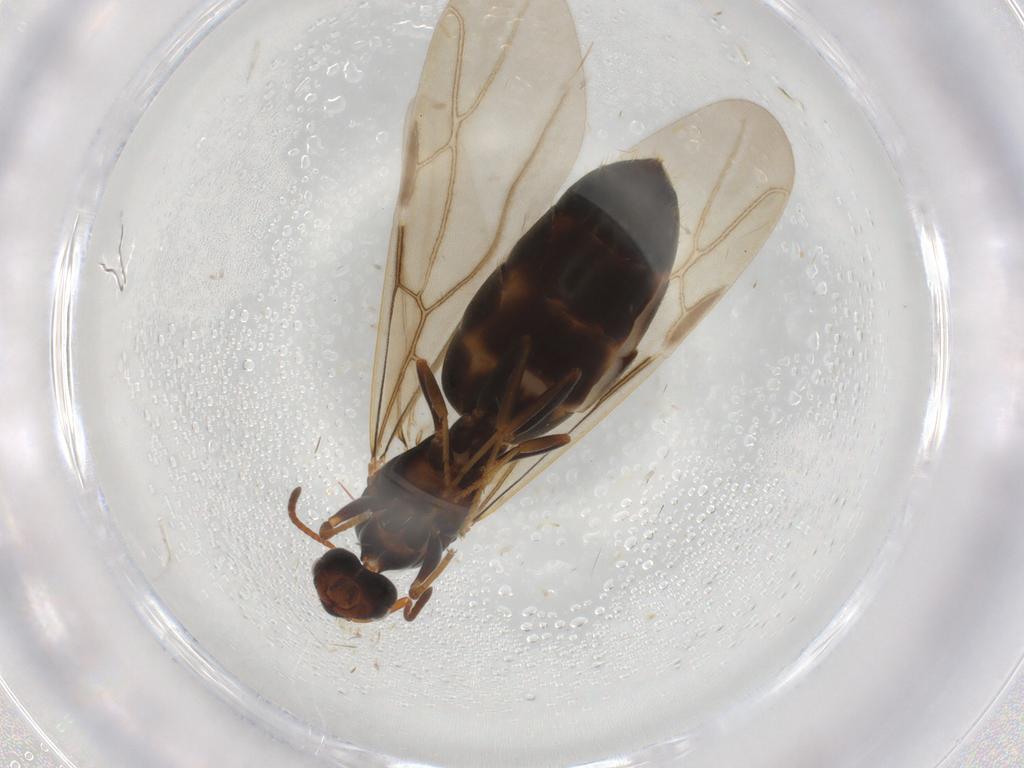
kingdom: Animalia
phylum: Arthropoda
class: Insecta
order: Hymenoptera
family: Formicidae
